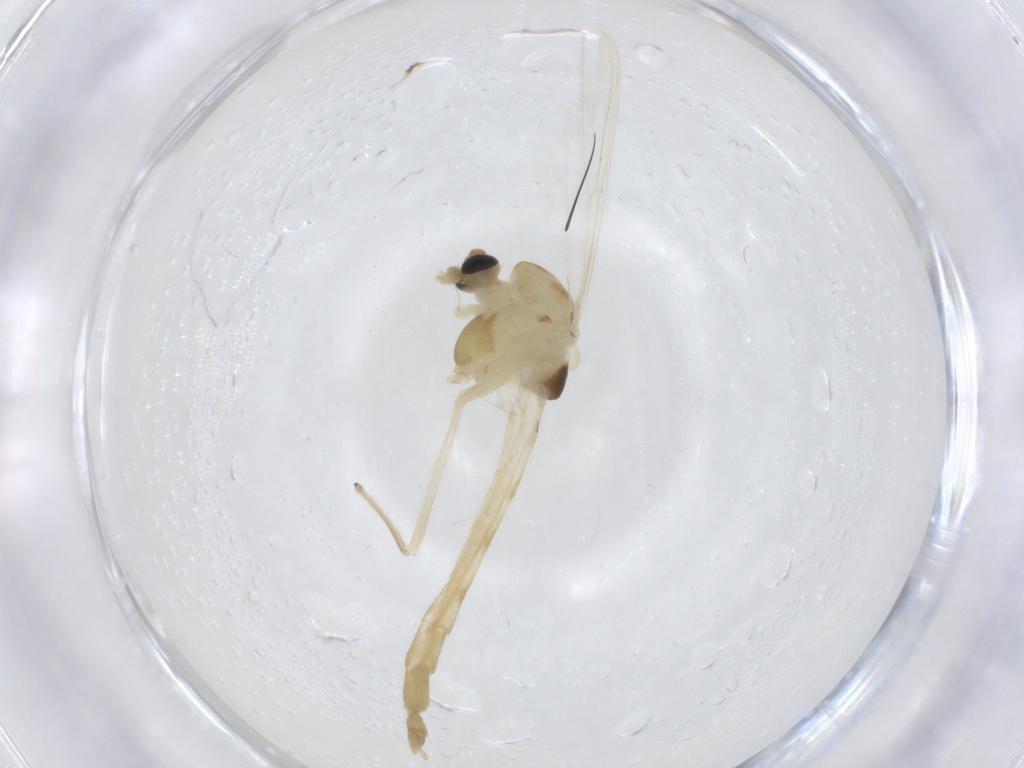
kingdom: Animalia
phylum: Arthropoda
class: Insecta
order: Diptera
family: Chironomidae
